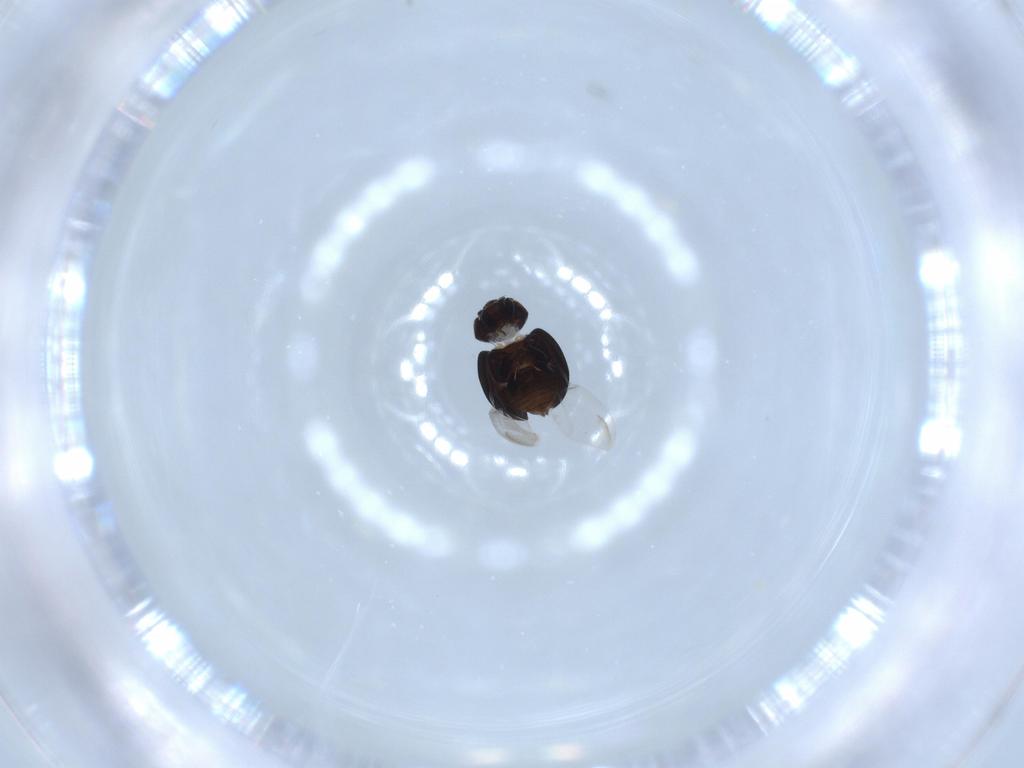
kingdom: Animalia
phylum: Arthropoda
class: Insecta
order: Coleoptera
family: Coccinellidae
